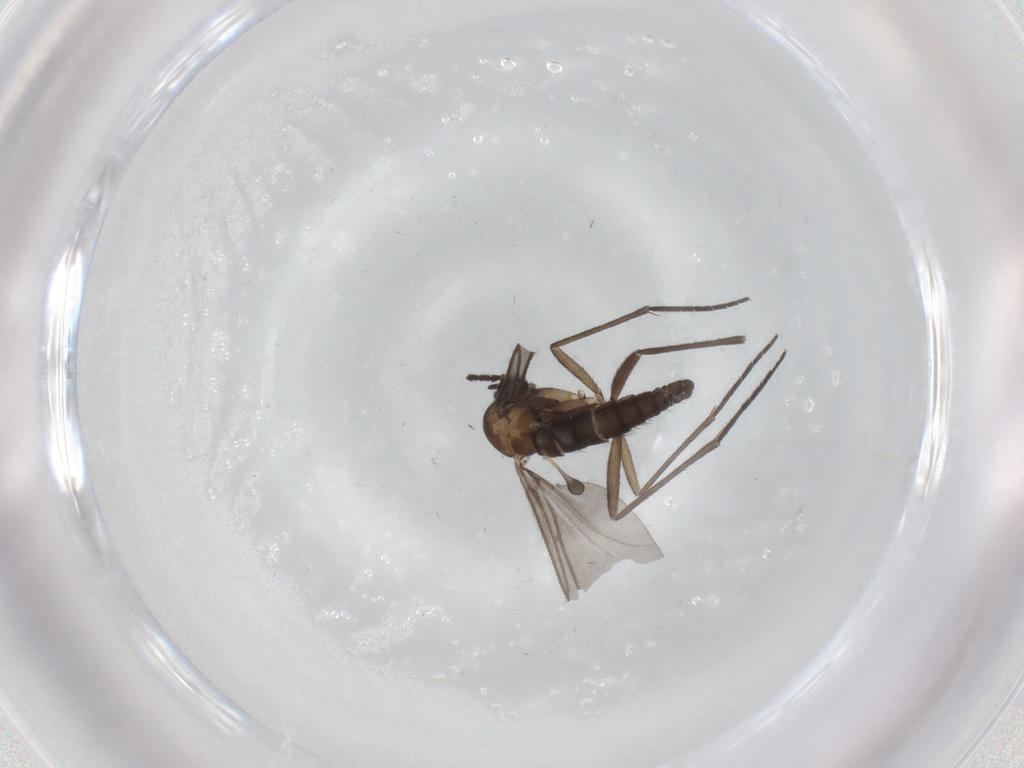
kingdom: Animalia
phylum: Arthropoda
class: Insecta
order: Diptera
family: Sciaridae
